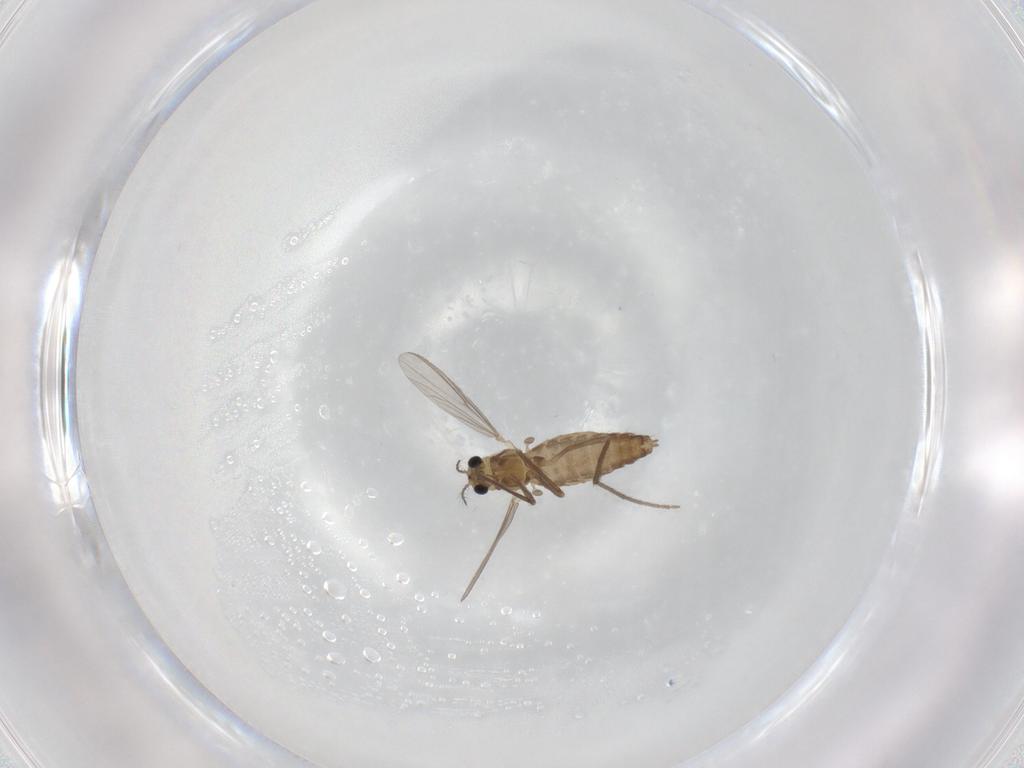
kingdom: Animalia
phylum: Arthropoda
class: Insecta
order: Diptera
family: Chironomidae
